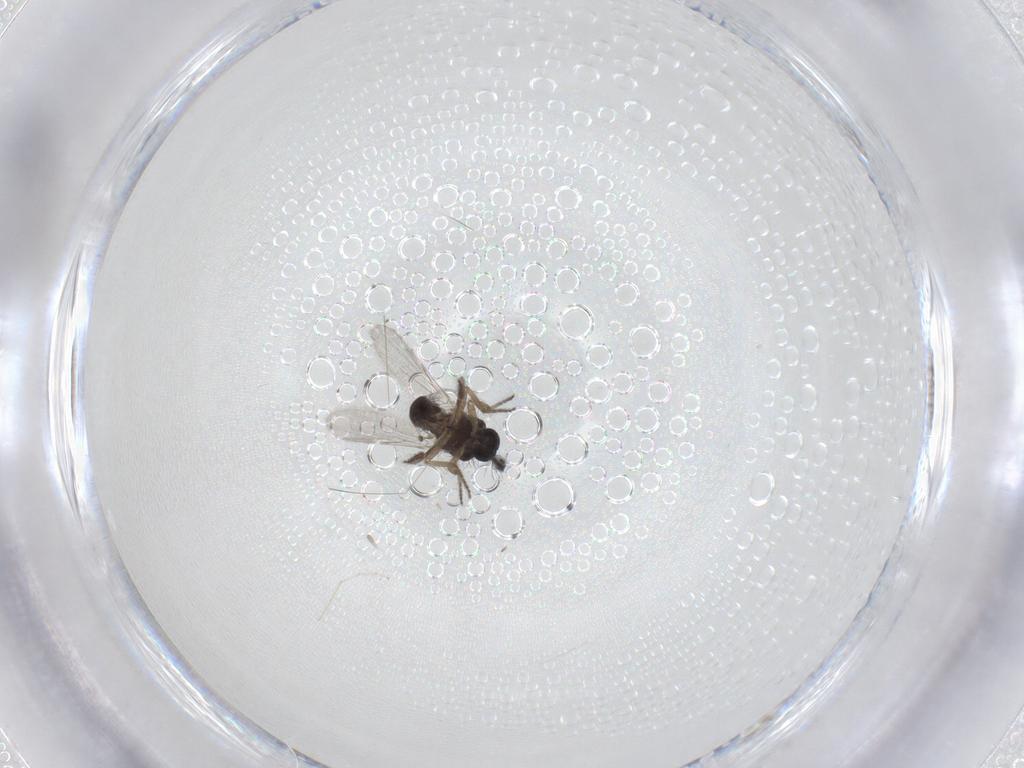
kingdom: Animalia
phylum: Arthropoda
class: Insecta
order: Diptera
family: Ceratopogonidae
